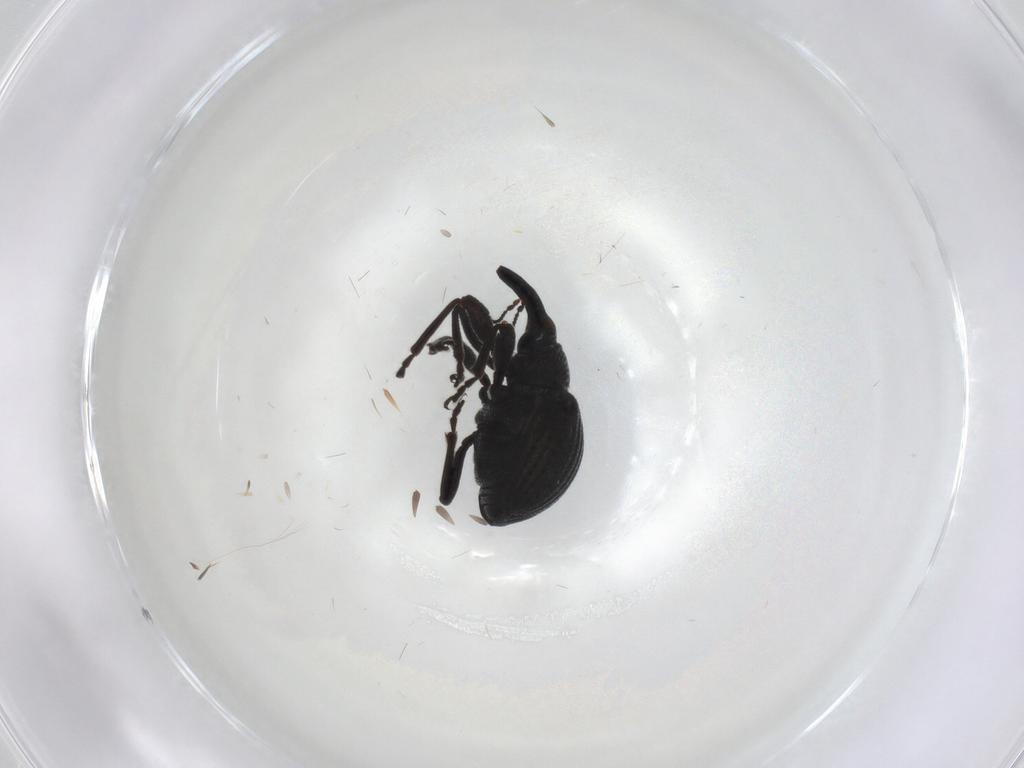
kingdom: Animalia
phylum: Arthropoda
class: Insecta
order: Coleoptera
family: Brentidae
